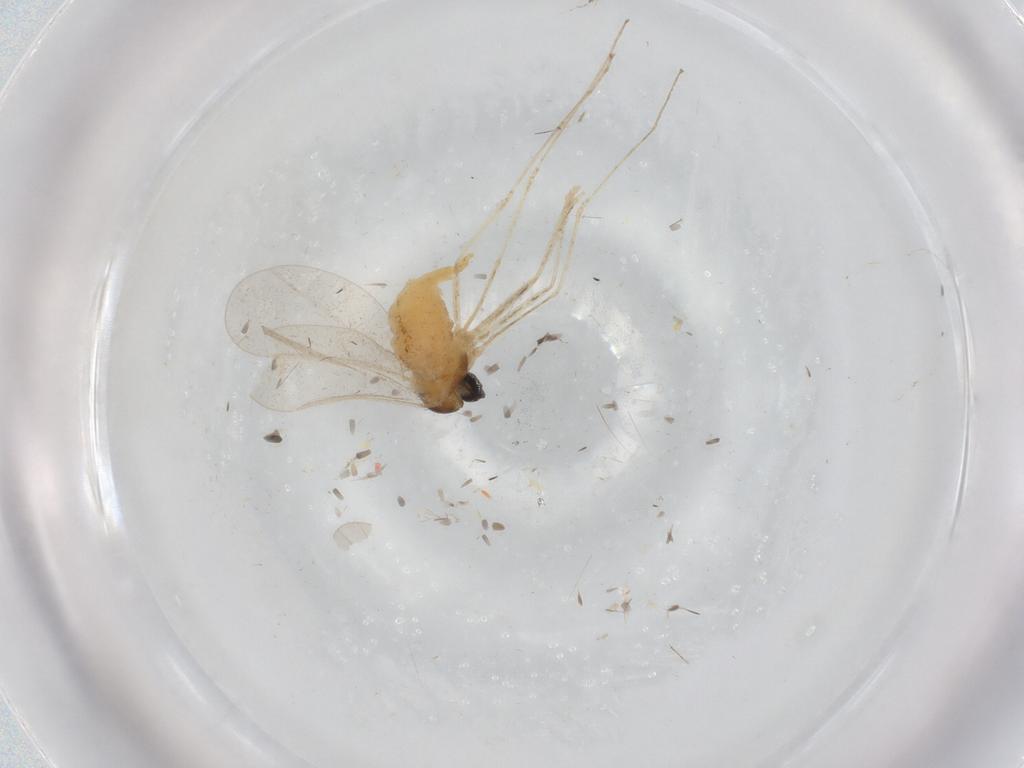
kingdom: Animalia
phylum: Arthropoda
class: Insecta
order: Diptera
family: Cecidomyiidae
